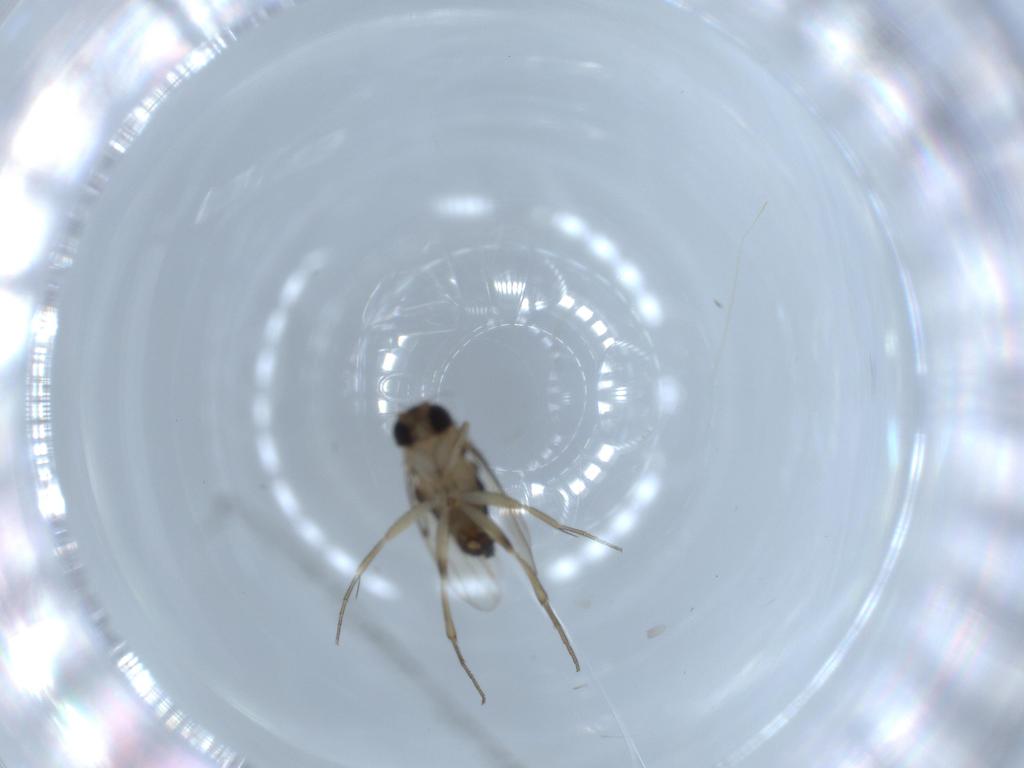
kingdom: Animalia
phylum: Arthropoda
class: Insecta
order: Diptera
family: Phoridae
